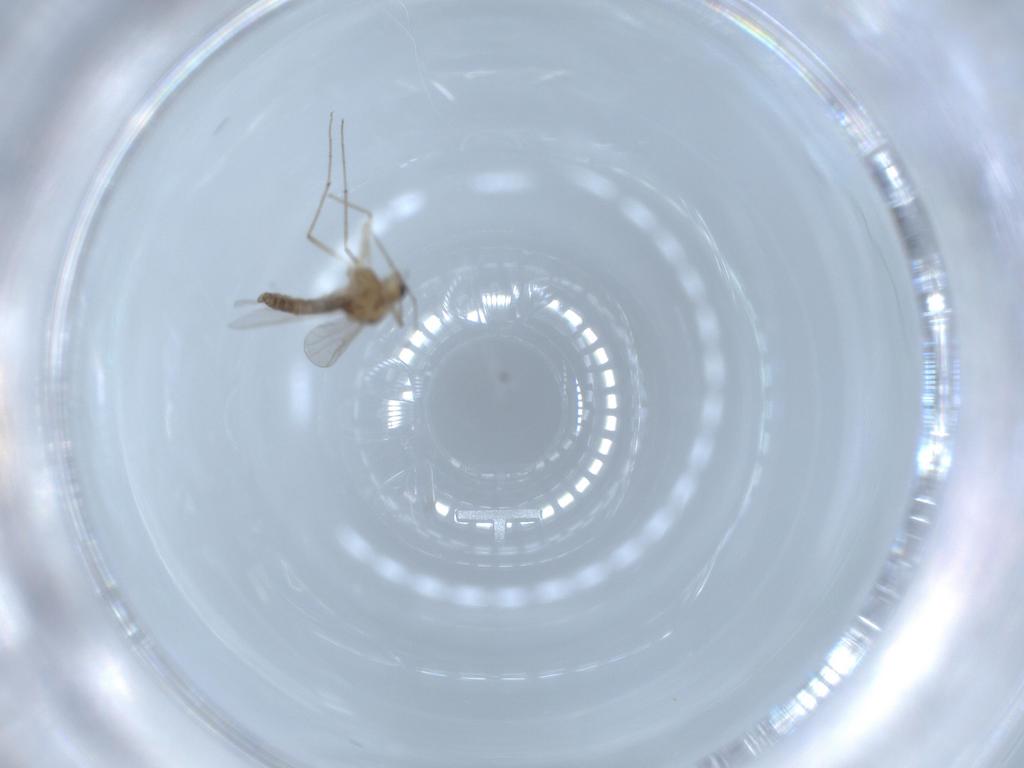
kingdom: Animalia
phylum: Arthropoda
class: Insecta
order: Diptera
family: Chironomidae
